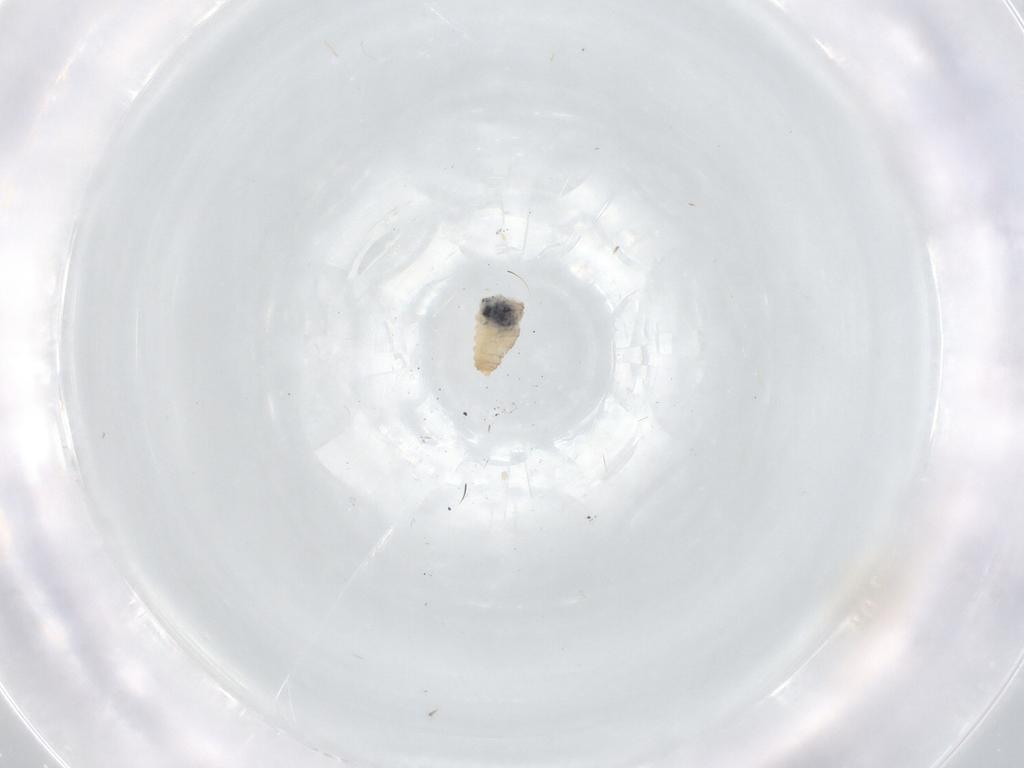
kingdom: Animalia
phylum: Arthropoda
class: Insecta
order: Diptera
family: Cecidomyiidae
